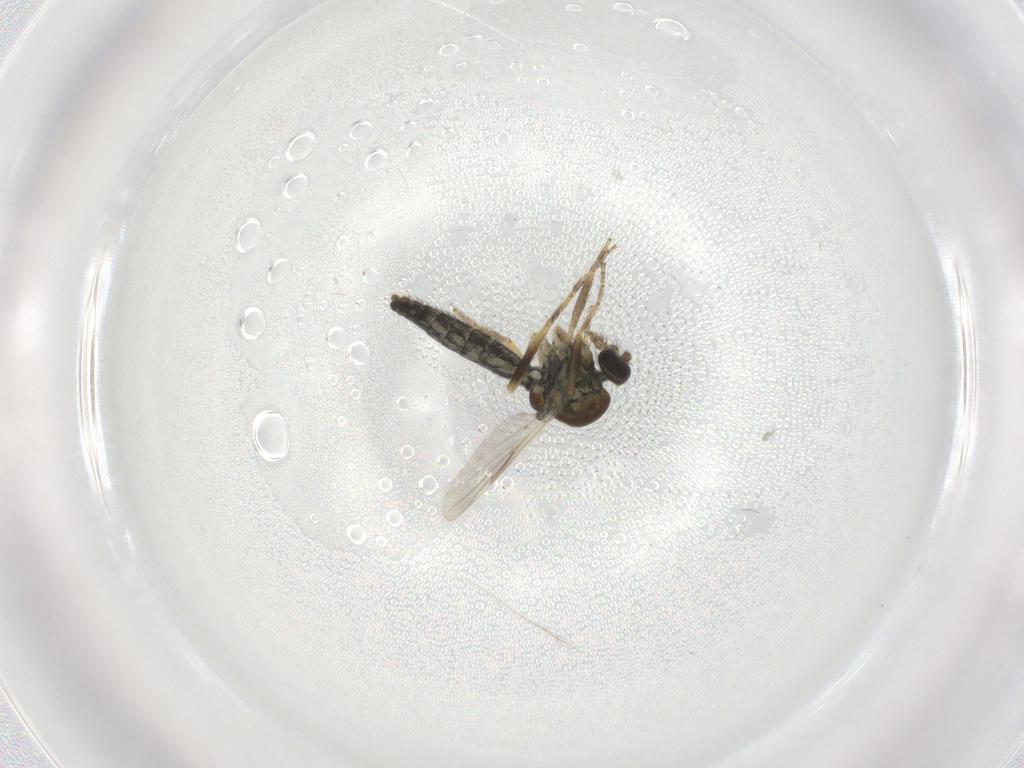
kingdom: Animalia
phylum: Arthropoda
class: Insecta
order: Diptera
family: Ceratopogonidae
